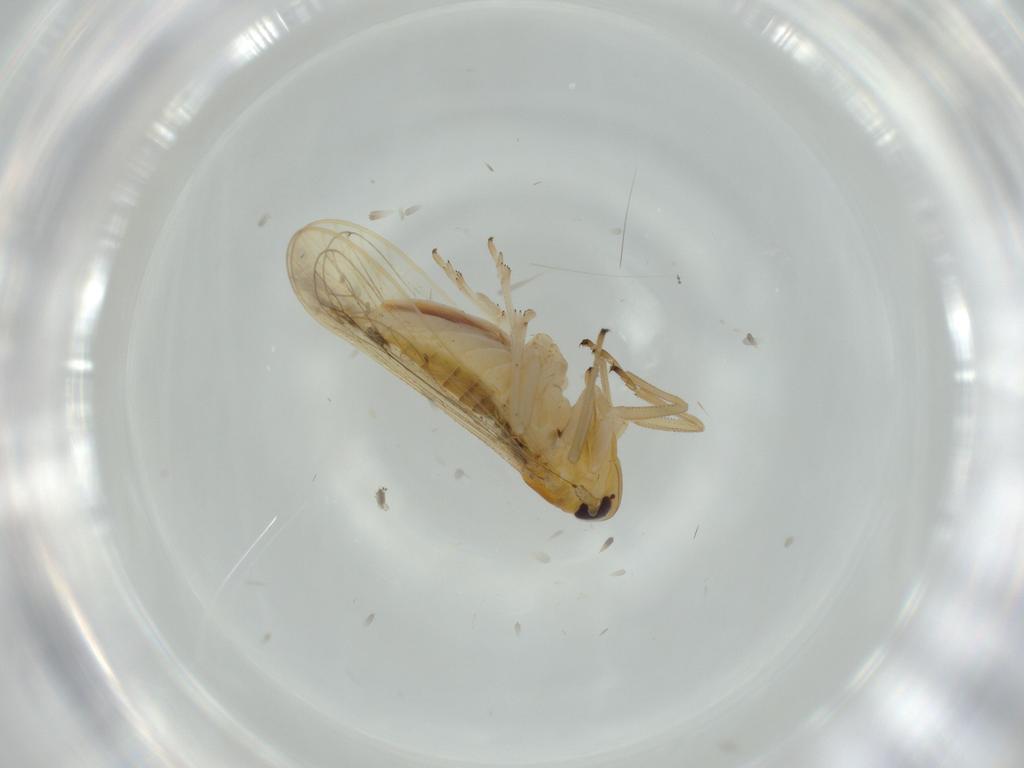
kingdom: Animalia
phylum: Arthropoda
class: Insecta
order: Hemiptera
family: Delphacidae
